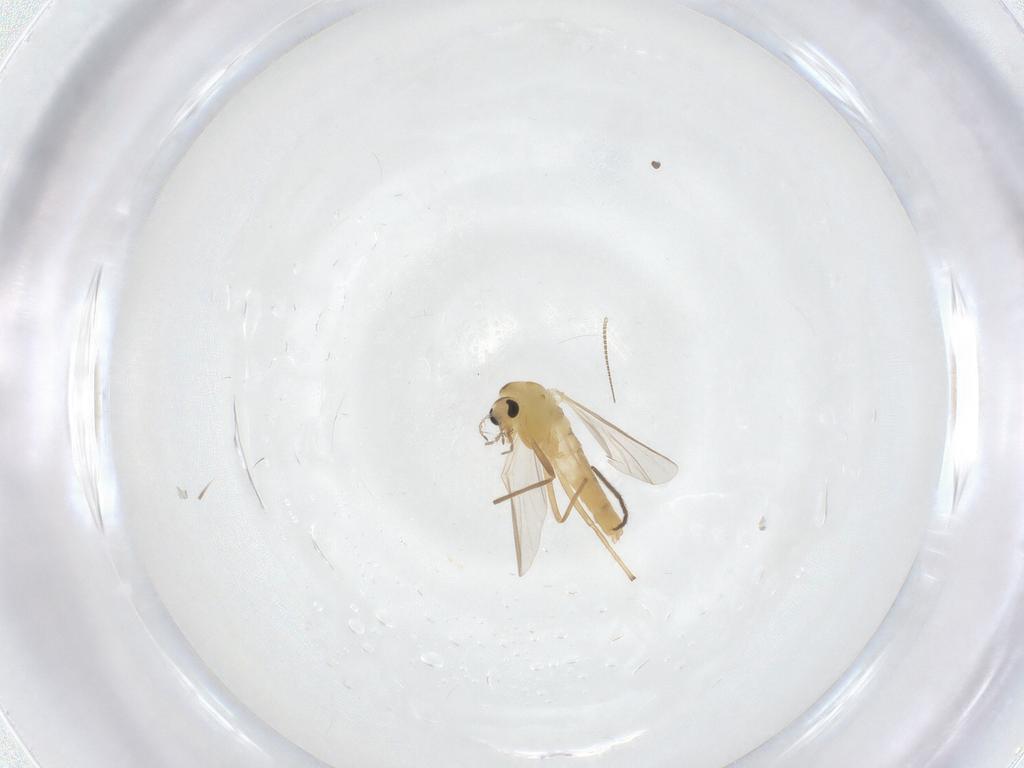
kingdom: Animalia
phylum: Arthropoda
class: Insecta
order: Diptera
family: Chironomidae
